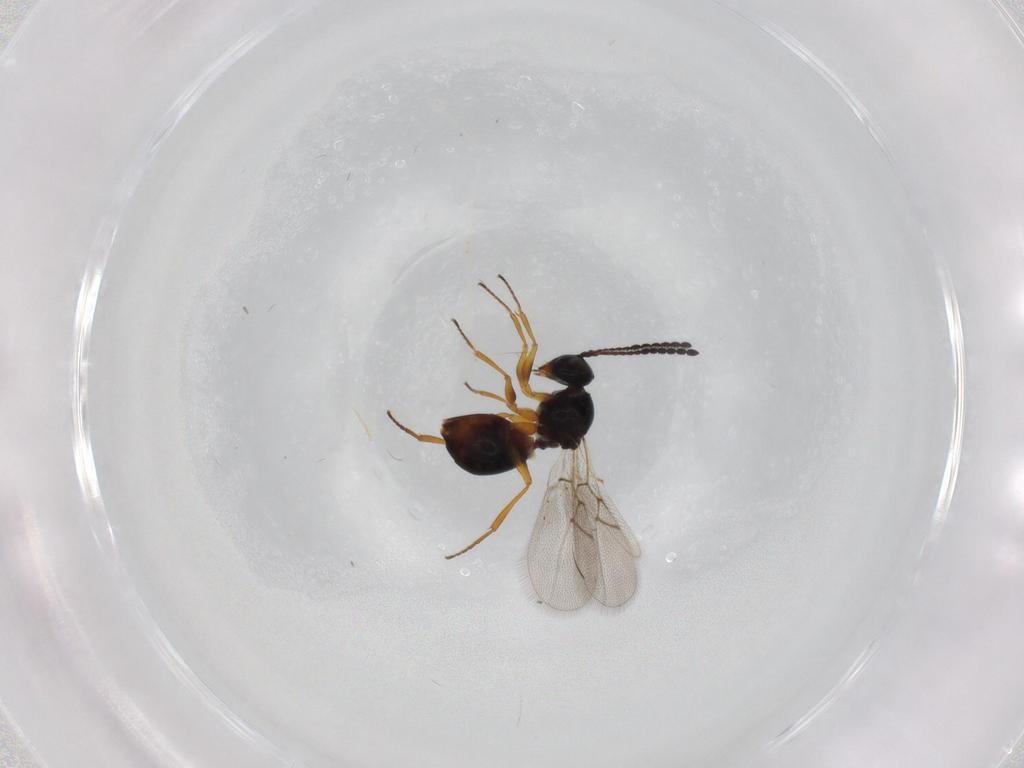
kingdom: Animalia
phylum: Arthropoda
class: Insecta
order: Hymenoptera
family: Figitidae
